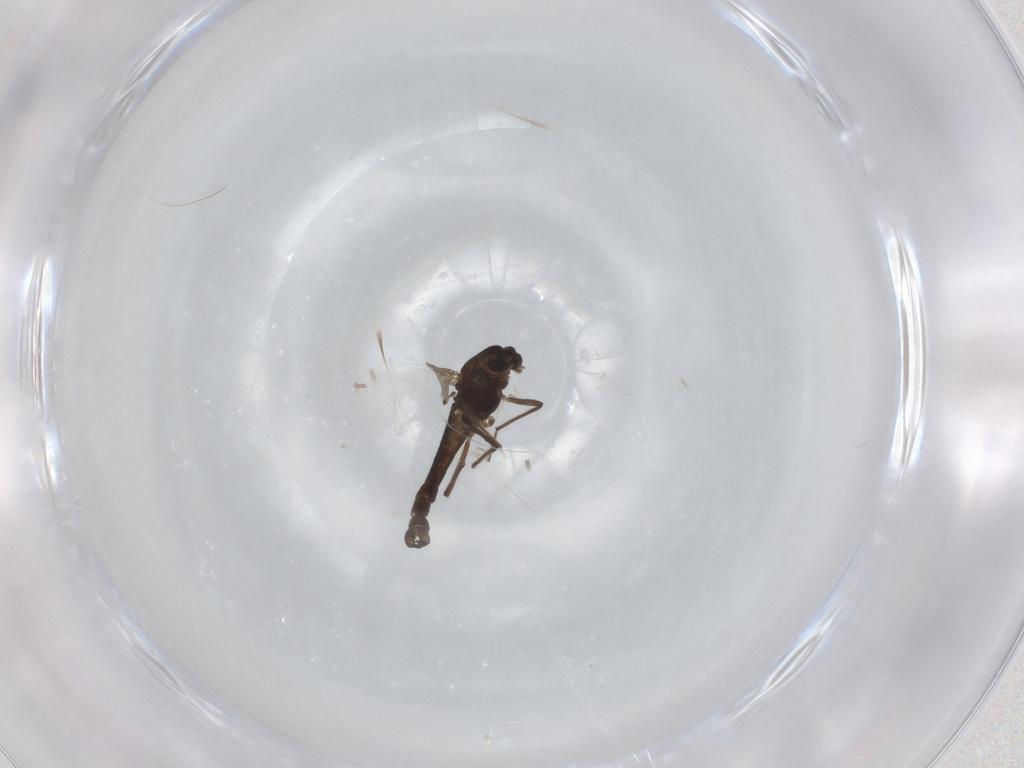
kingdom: Animalia
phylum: Arthropoda
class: Insecta
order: Diptera
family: Chironomidae
